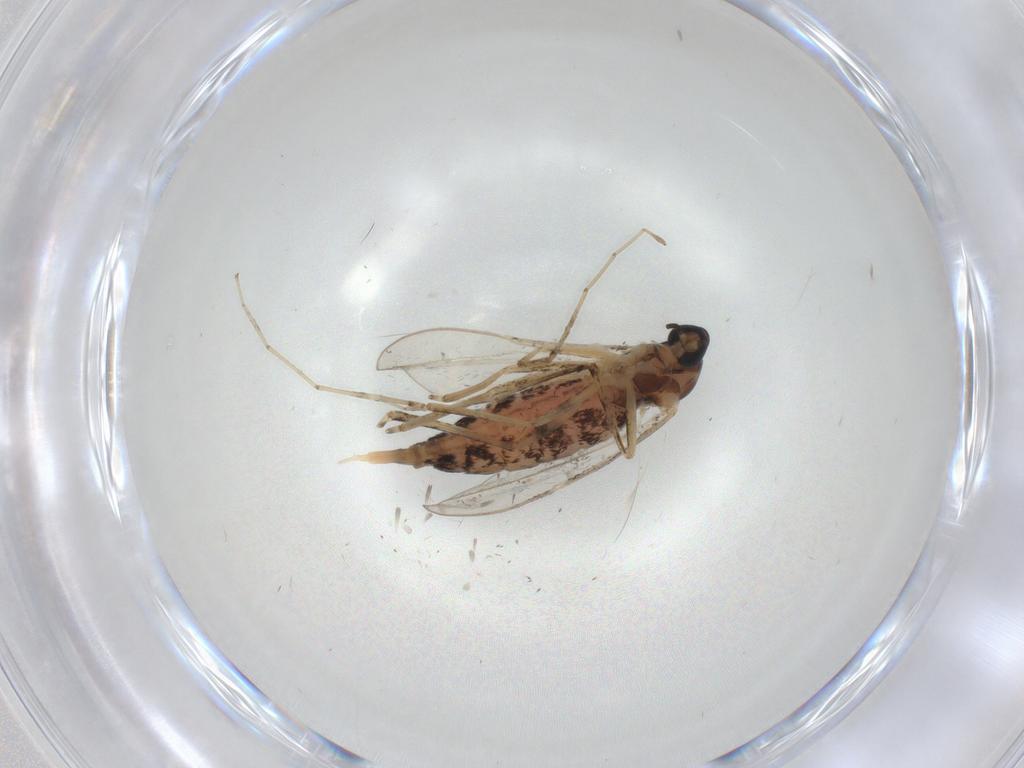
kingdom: Animalia
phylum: Arthropoda
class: Insecta
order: Diptera
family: Cecidomyiidae
